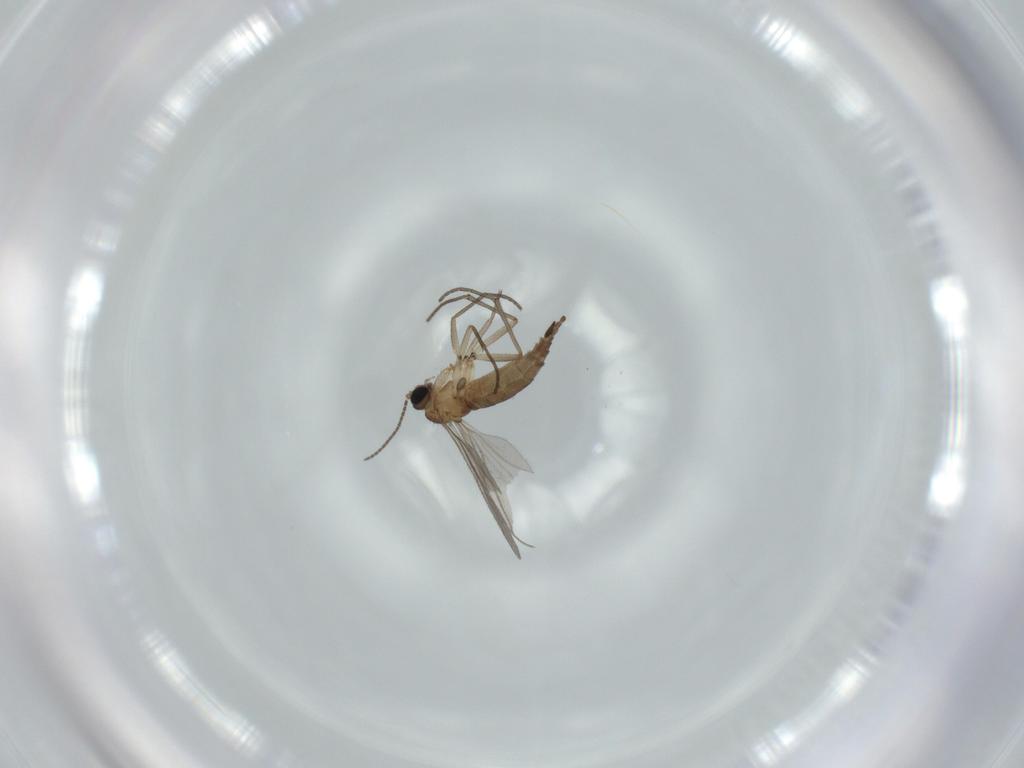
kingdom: Animalia
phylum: Arthropoda
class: Insecta
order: Diptera
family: Sciaridae
